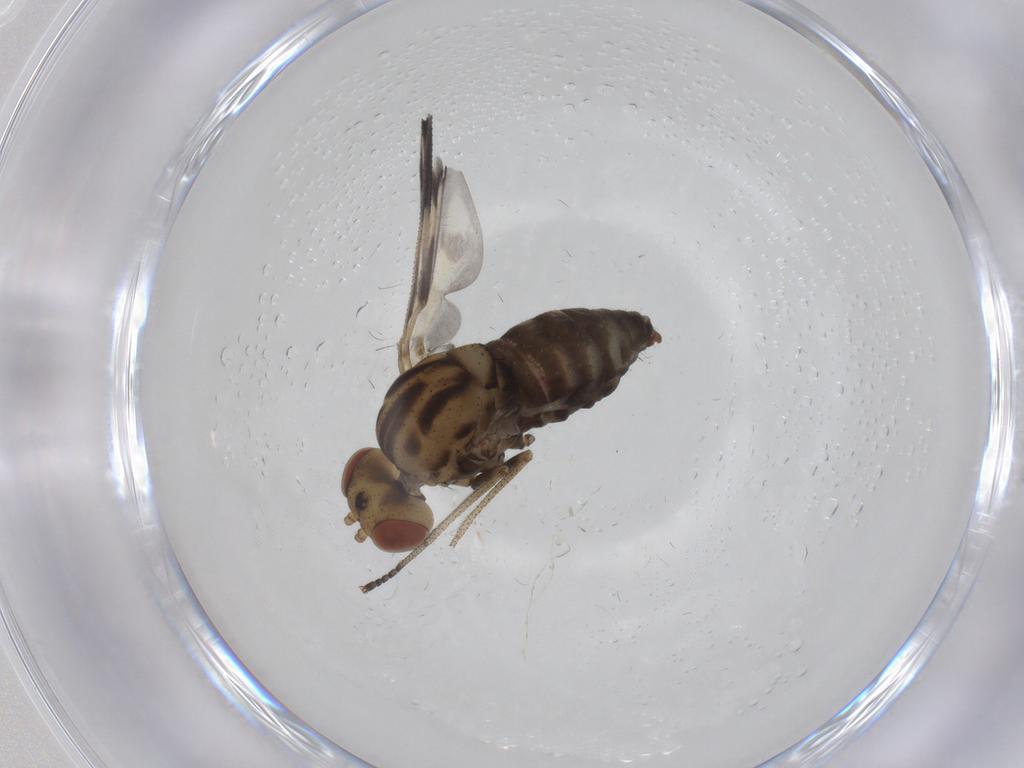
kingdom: Animalia
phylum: Arthropoda
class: Insecta
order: Diptera
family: Austroleptidae
